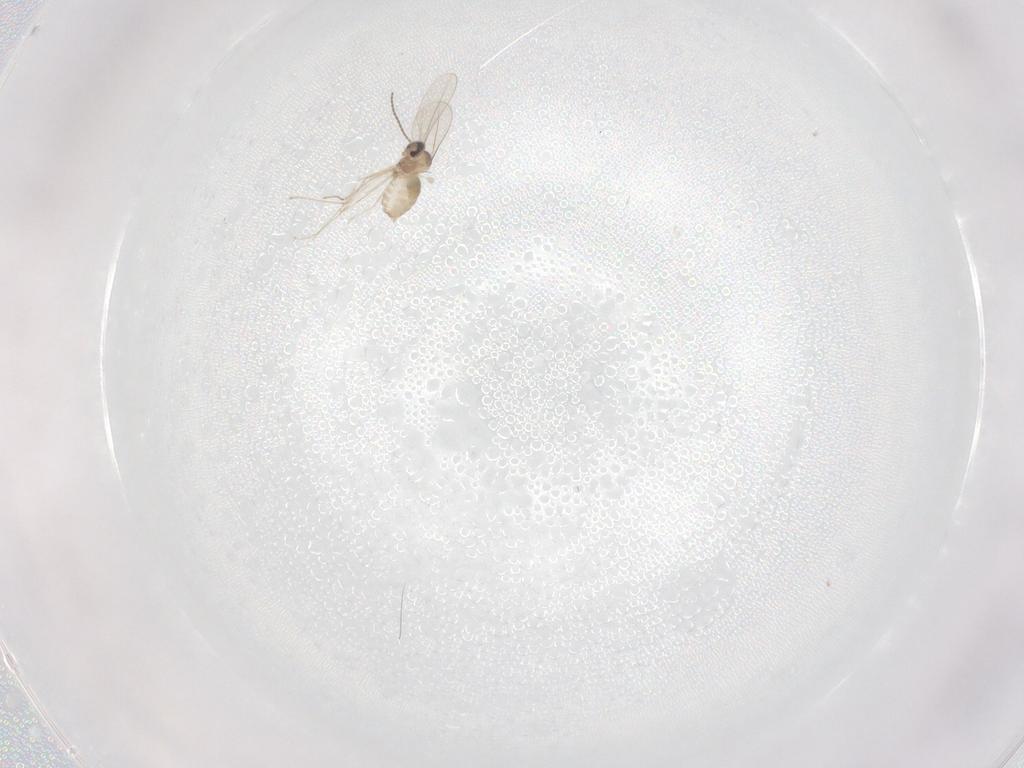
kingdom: Animalia
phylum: Arthropoda
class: Insecta
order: Diptera
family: Cecidomyiidae
